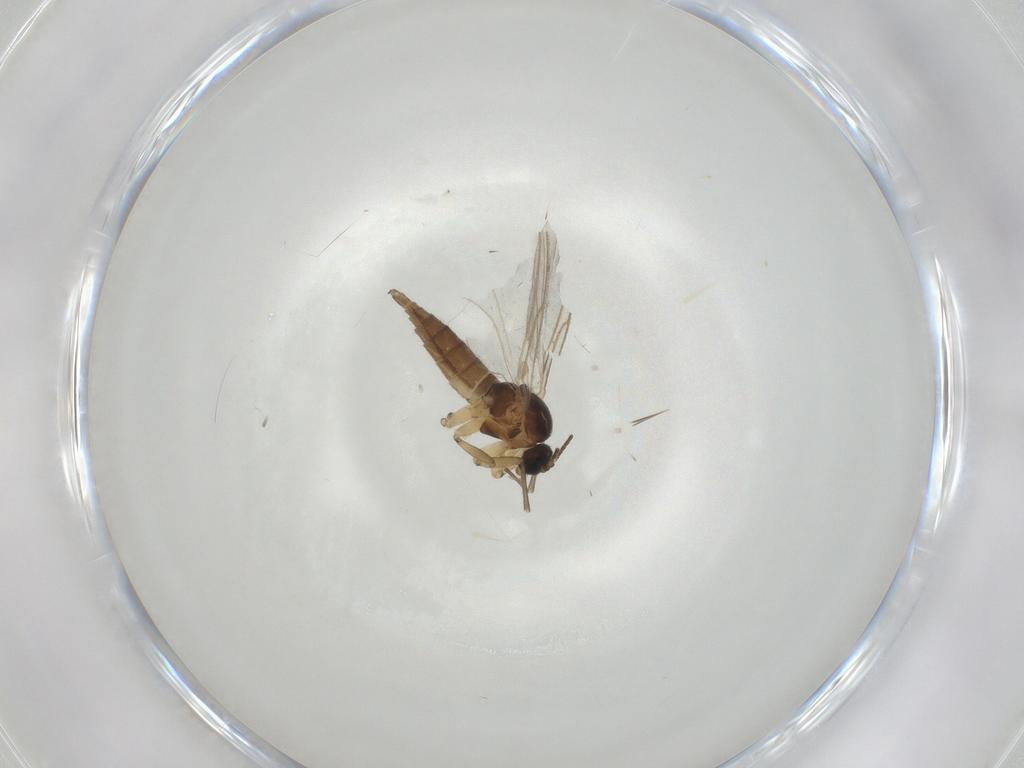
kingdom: Animalia
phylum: Arthropoda
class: Insecta
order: Diptera
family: Sciaridae
